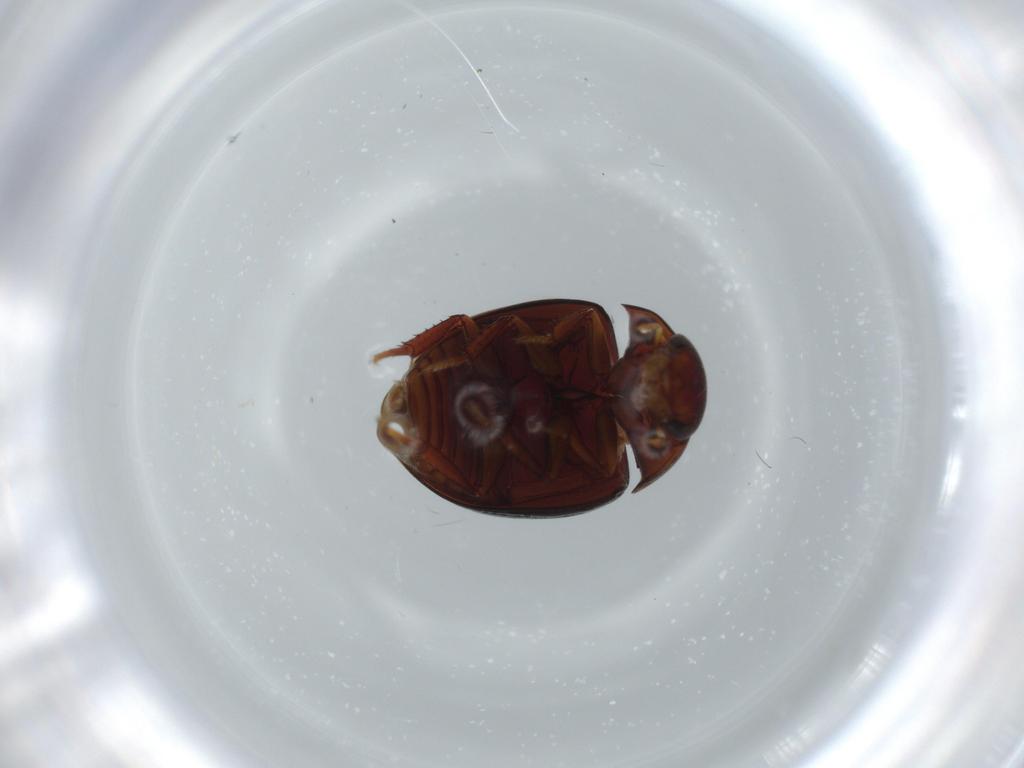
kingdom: Animalia
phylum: Arthropoda
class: Insecta
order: Coleoptera
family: Hydrophilidae
